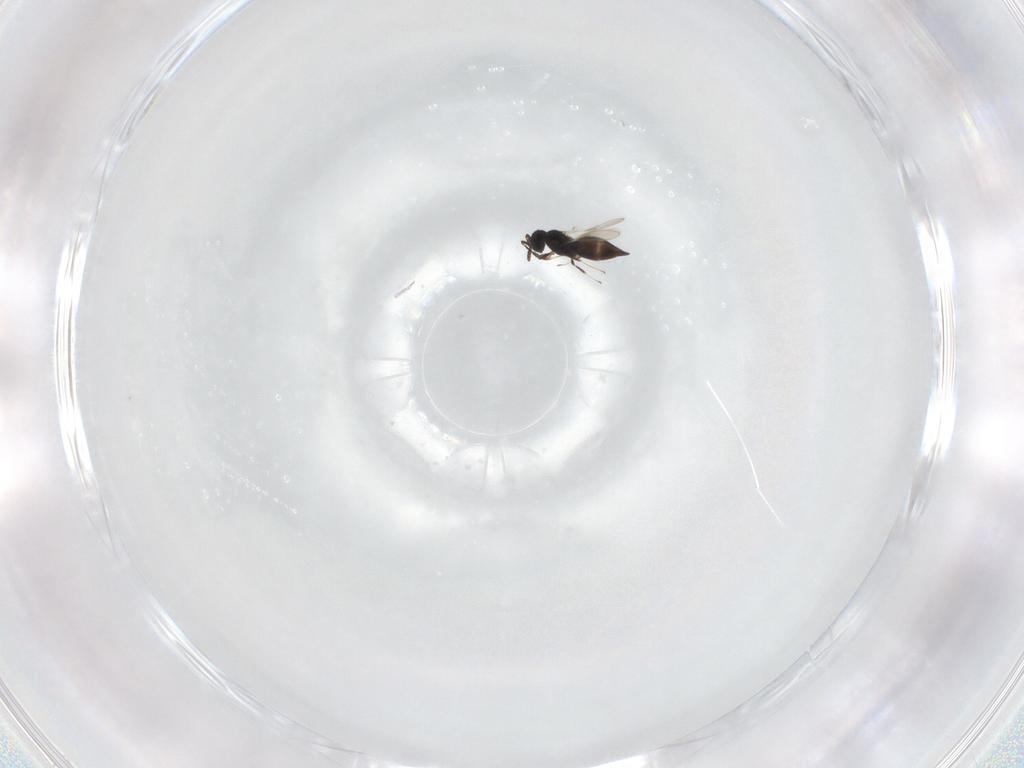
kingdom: Animalia
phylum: Arthropoda
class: Insecta
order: Hymenoptera
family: Scelionidae
